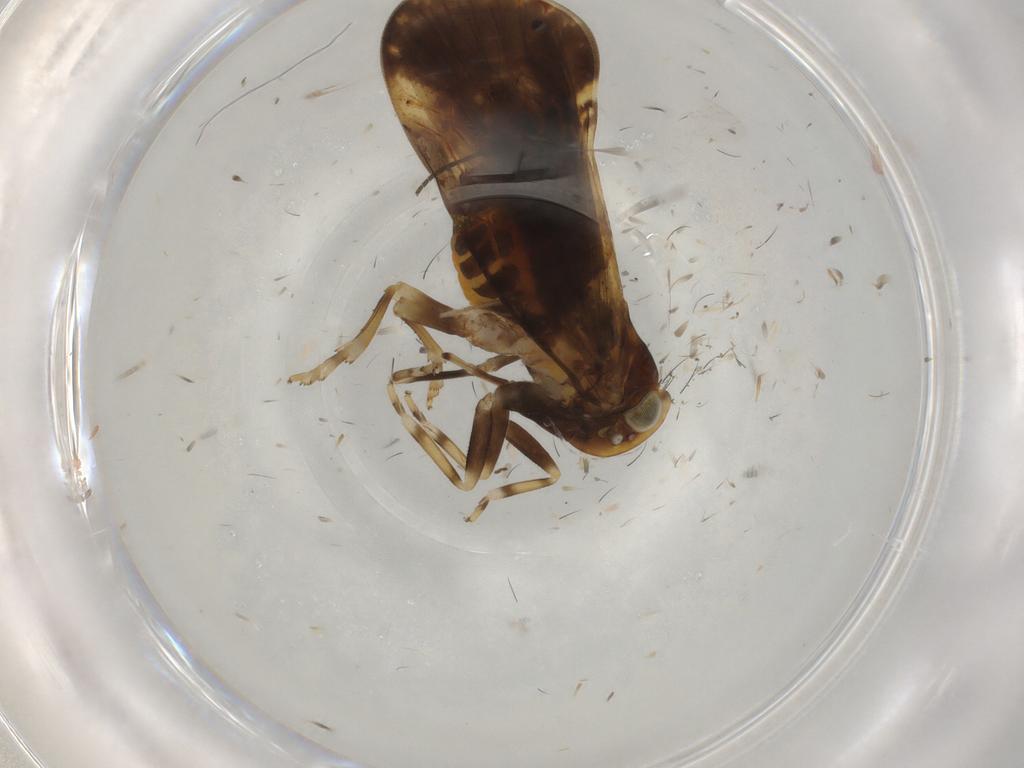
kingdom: Animalia
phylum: Arthropoda
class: Insecta
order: Hemiptera
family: Cixiidae
